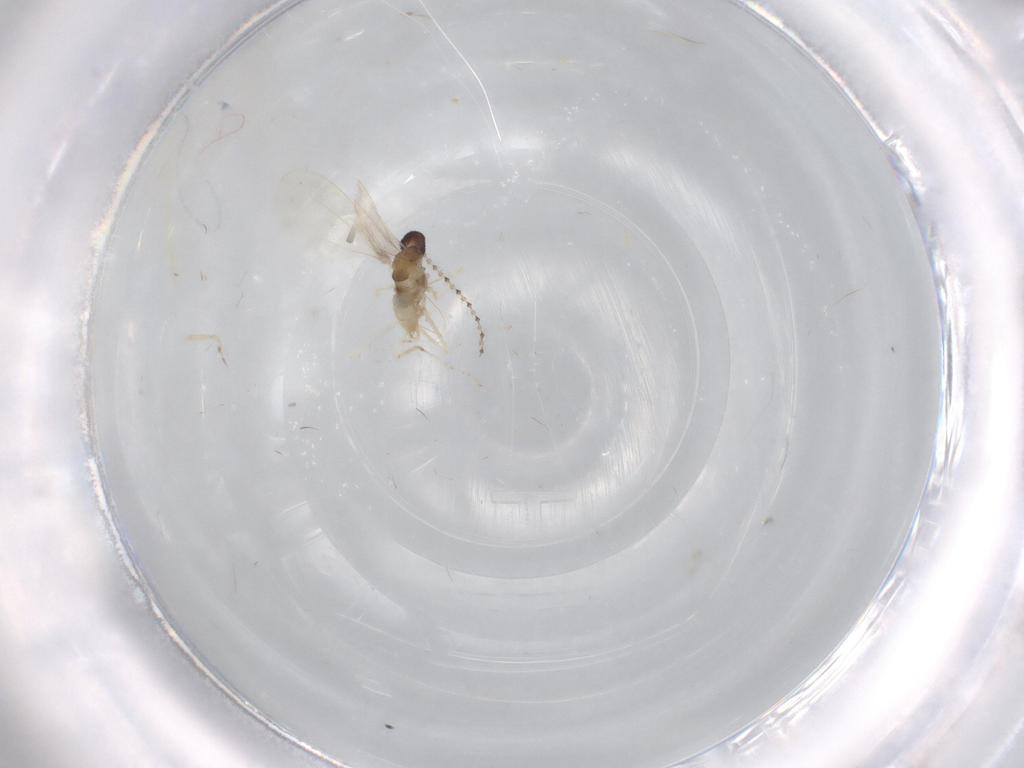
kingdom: Animalia
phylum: Arthropoda
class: Insecta
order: Diptera
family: Cecidomyiidae
